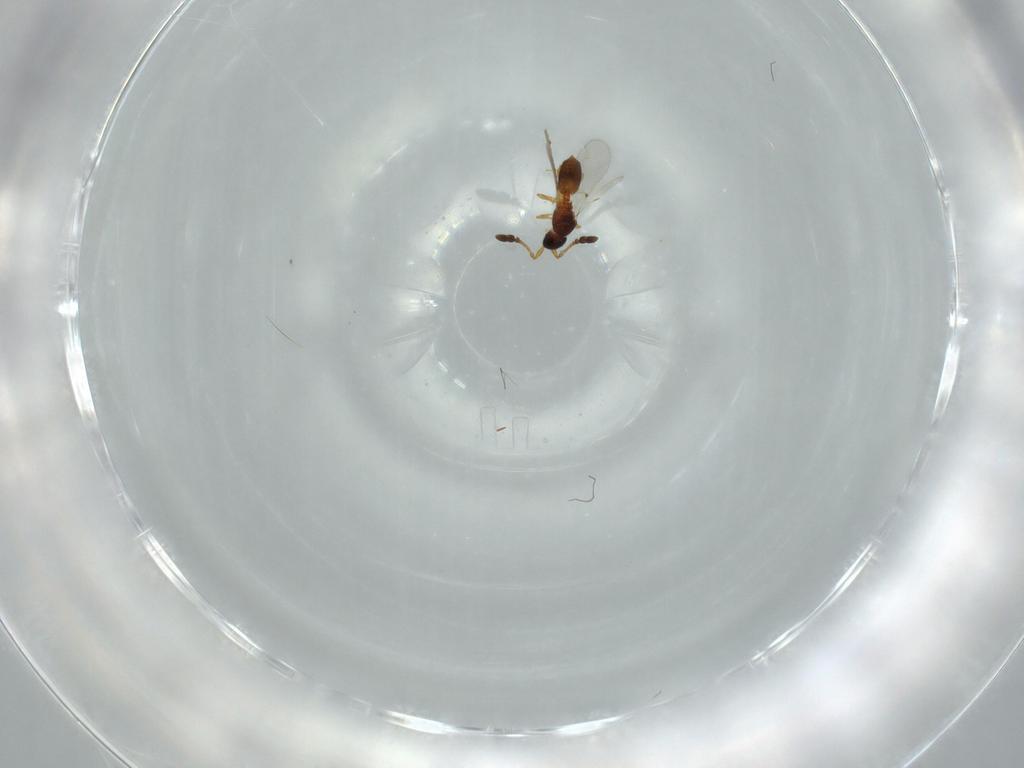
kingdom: Animalia
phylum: Arthropoda
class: Insecta
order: Hymenoptera
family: Diapriidae
